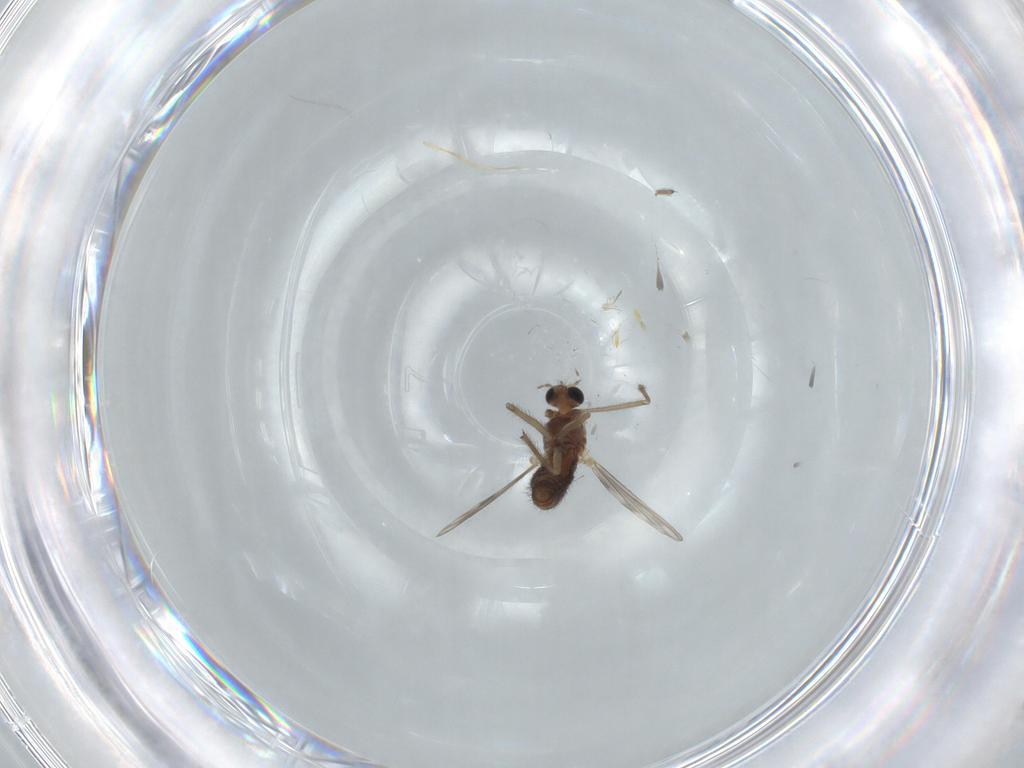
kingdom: Animalia
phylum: Arthropoda
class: Insecta
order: Diptera
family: Chironomidae
